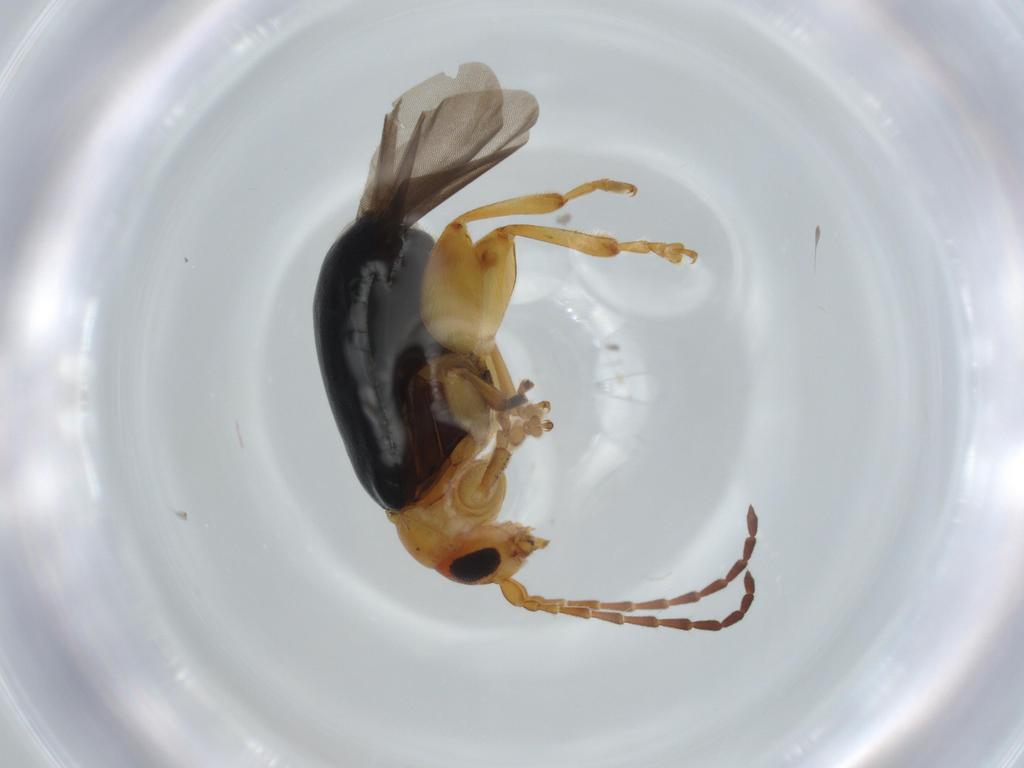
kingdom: Animalia
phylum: Arthropoda
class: Insecta
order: Coleoptera
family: Chrysomelidae
